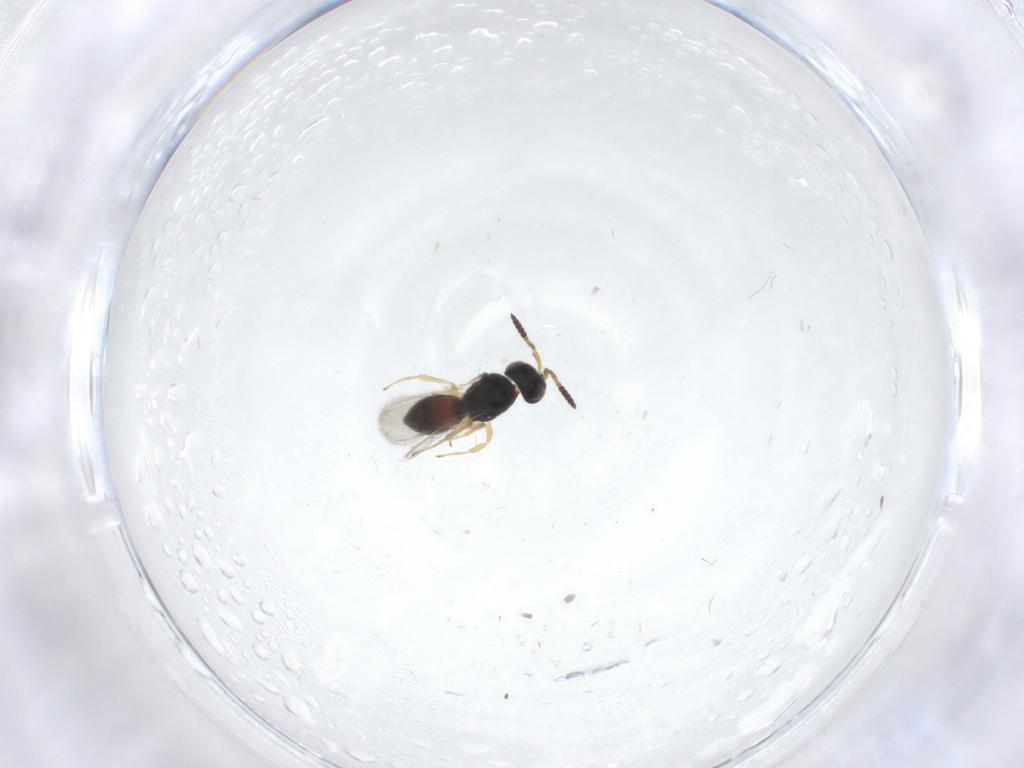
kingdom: Animalia
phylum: Arthropoda
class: Insecta
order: Hymenoptera
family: Scelionidae
